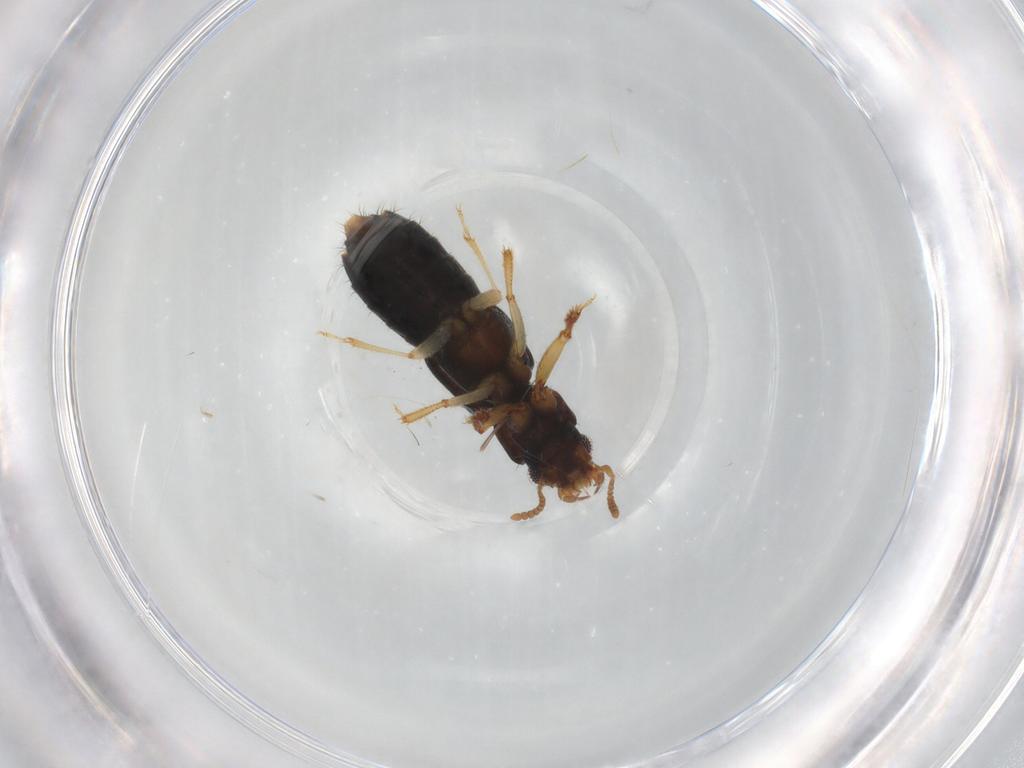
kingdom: Animalia
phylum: Arthropoda
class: Insecta
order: Coleoptera
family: Staphylinidae
